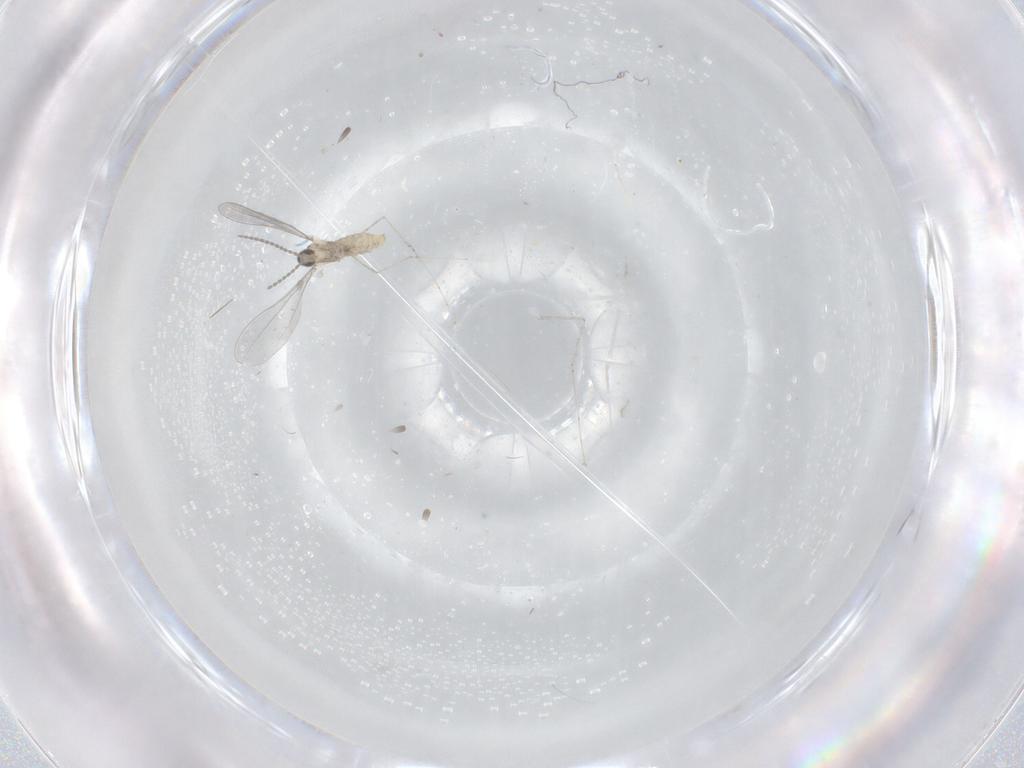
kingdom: Animalia
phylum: Arthropoda
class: Insecta
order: Diptera
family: Cecidomyiidae
